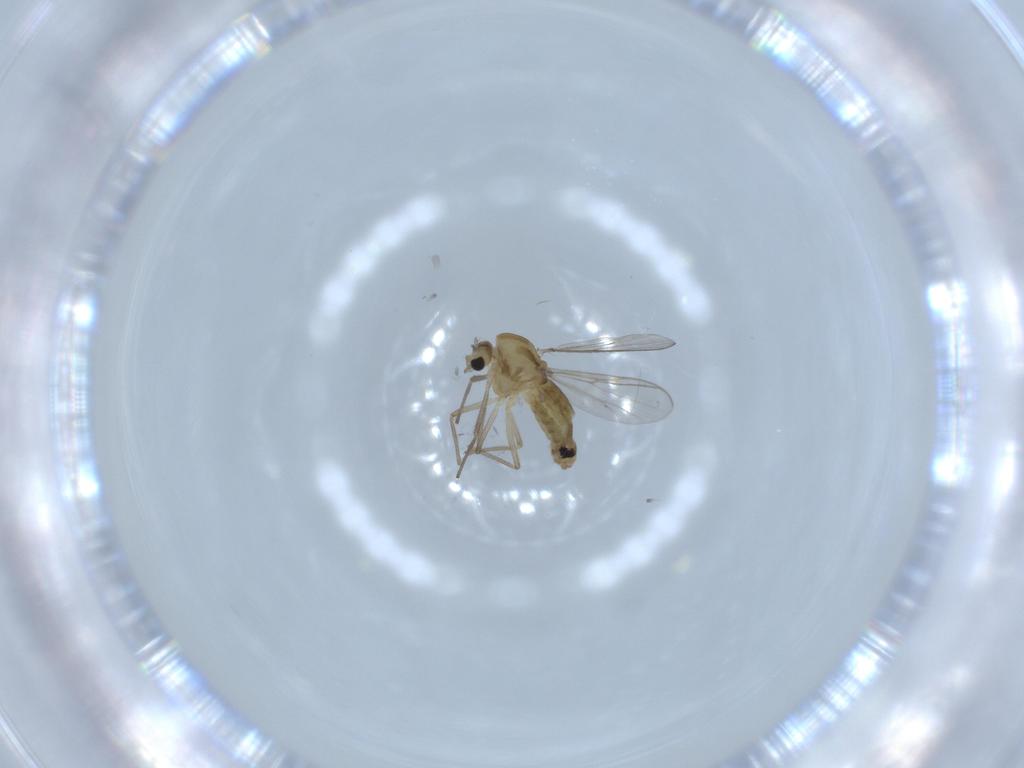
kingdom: Animalia
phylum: Arthropoda
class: Insecta
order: Diptera
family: Chironomidae
